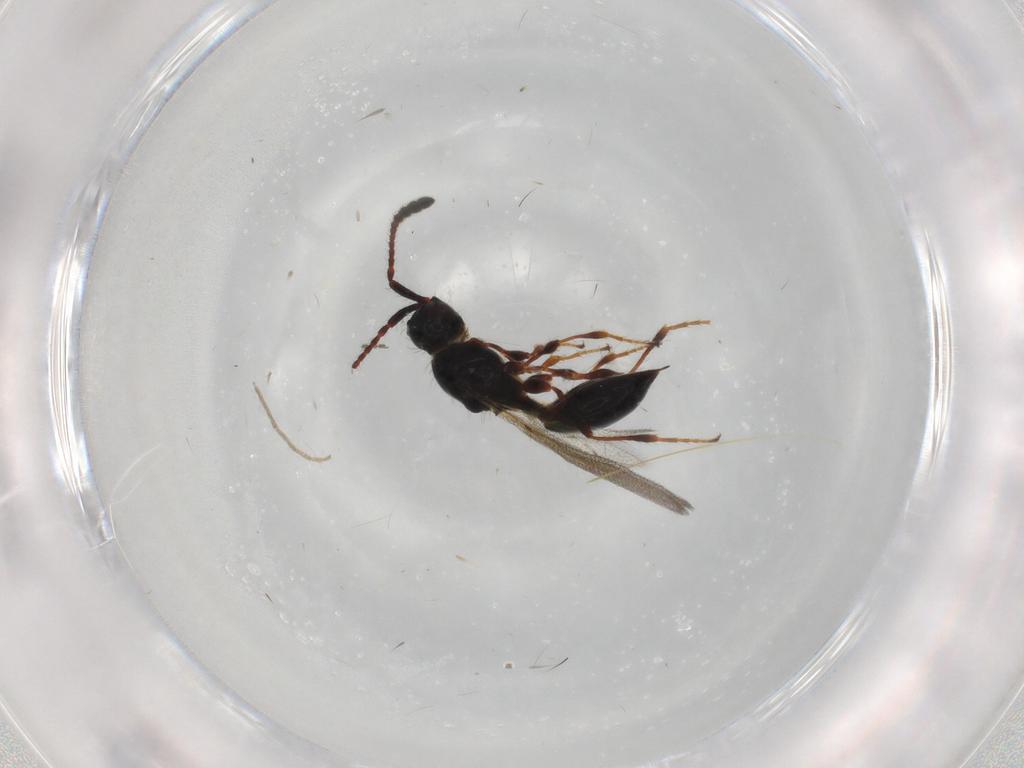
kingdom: Animalia
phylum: Arthropoda
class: Insecta
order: Hymenoptera
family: Diapriidae
